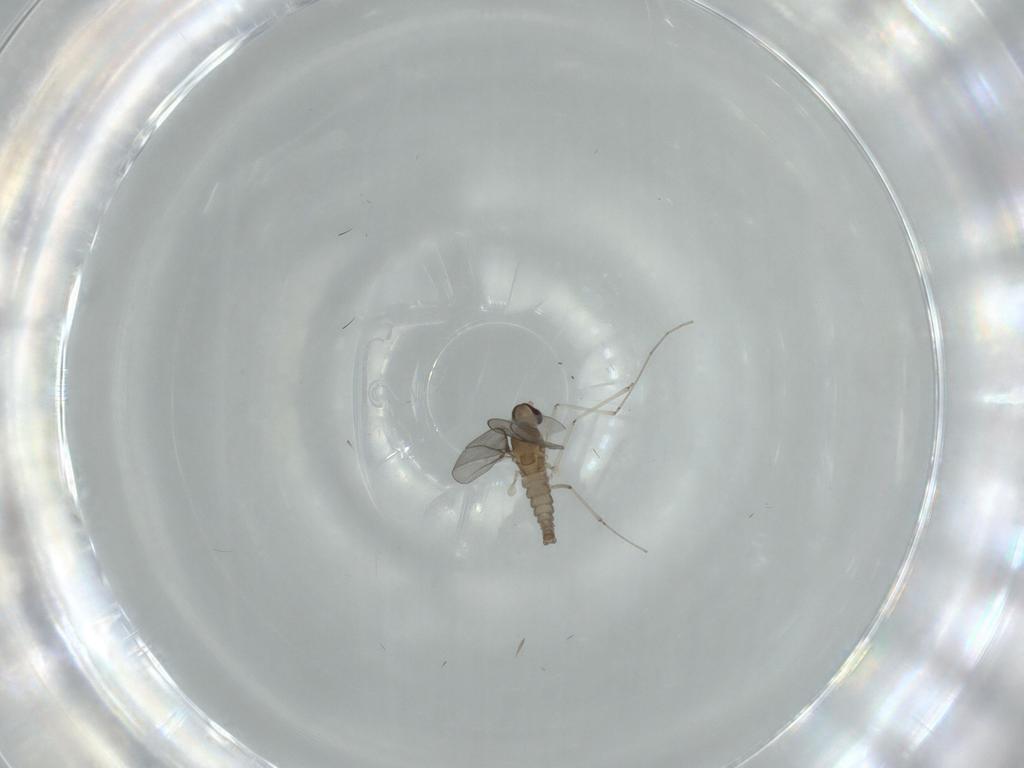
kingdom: Animalia
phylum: Arthropoda
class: Insecta
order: Diptera
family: Cecidomyiidae
